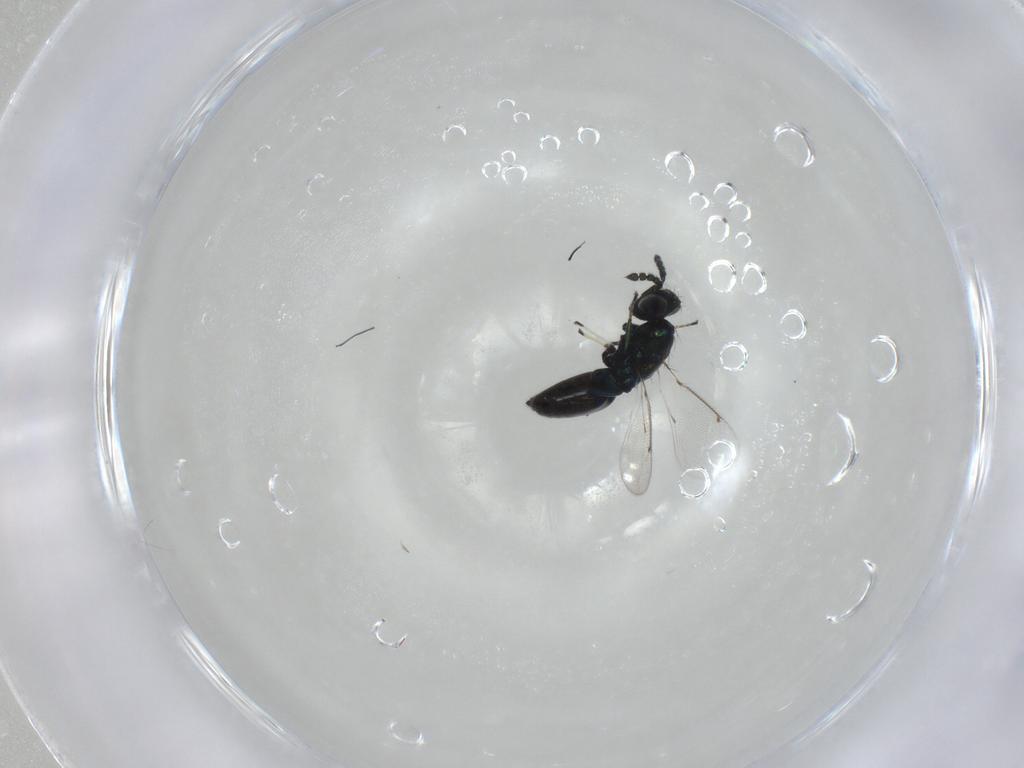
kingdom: Animalia
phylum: Arthropoda
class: Insecta
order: Hymenoptera
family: Eulophidae
